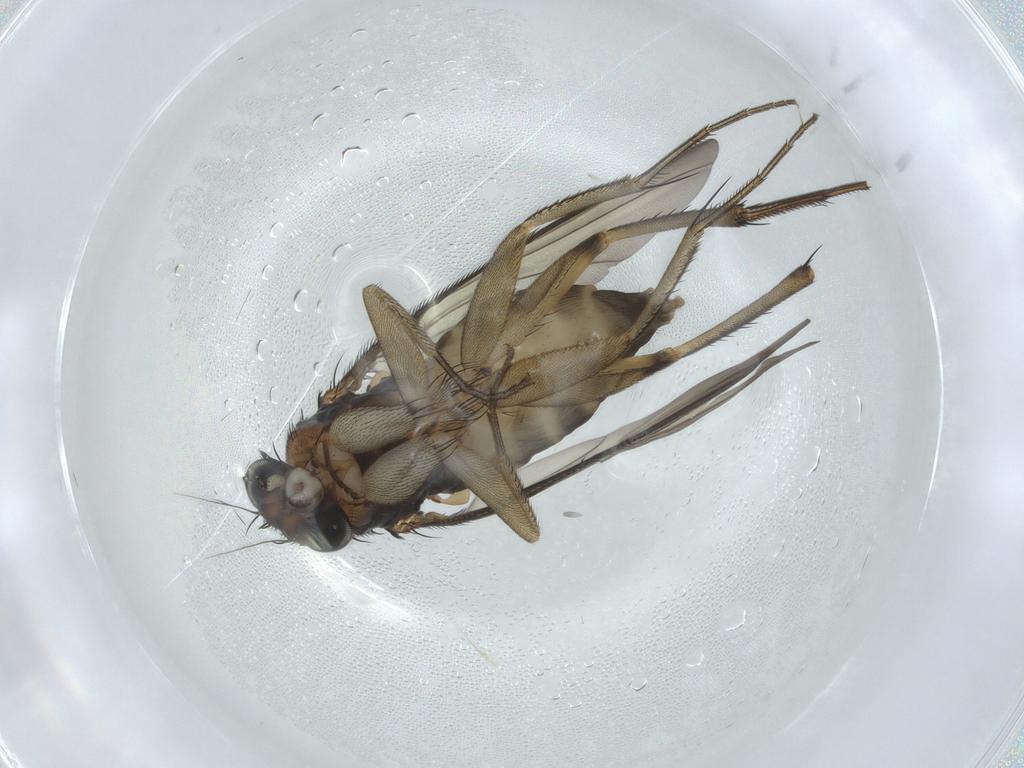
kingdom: Animalia
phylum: Arthropoda
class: Insecta
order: Diptera
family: Phoridae
